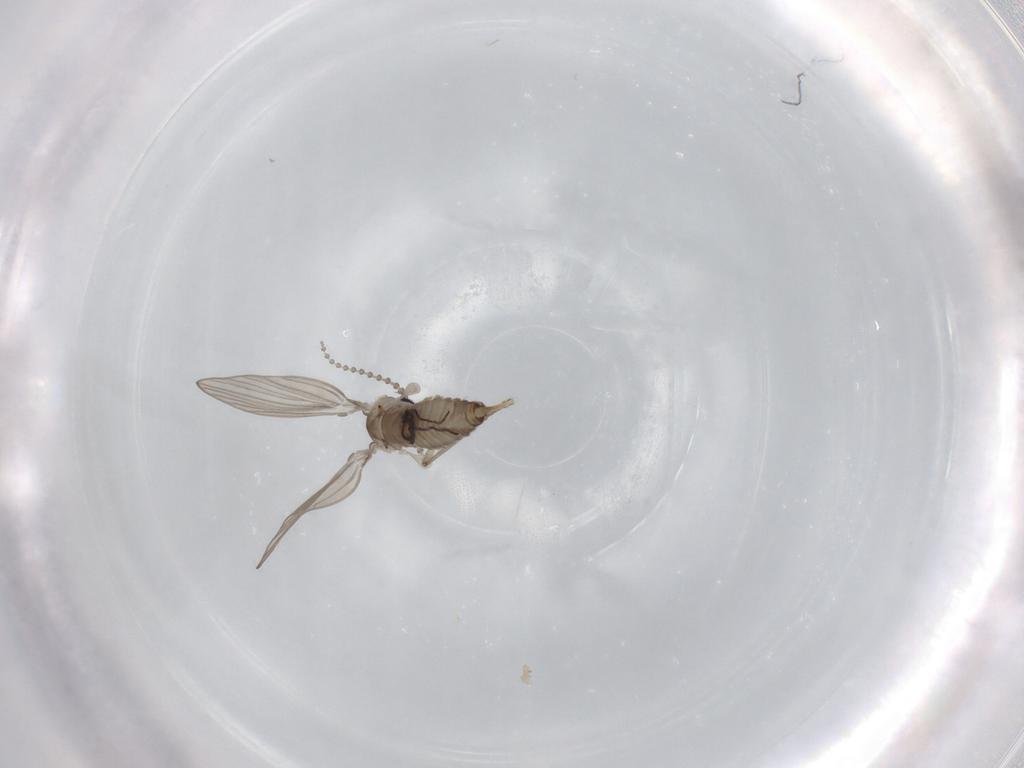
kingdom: Animalia
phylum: Arthropoda
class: Insecta
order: Diptera
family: Psychodidae
